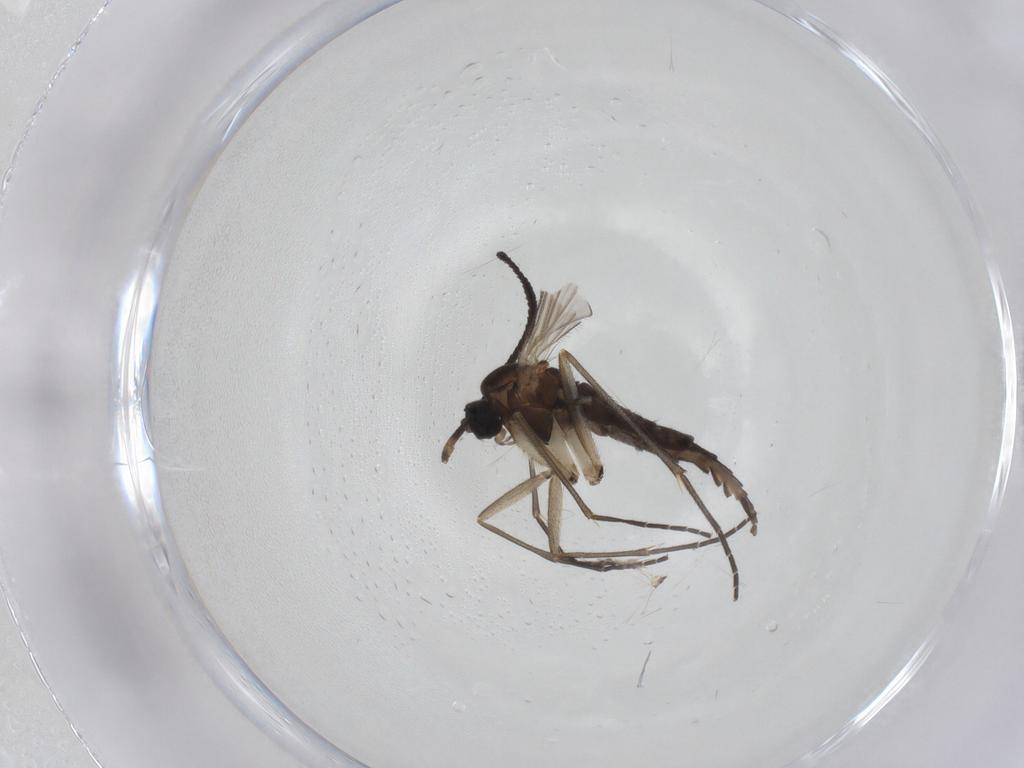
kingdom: Animalia
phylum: Arthropoda
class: Insecta
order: Diptera
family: Sciaridae
